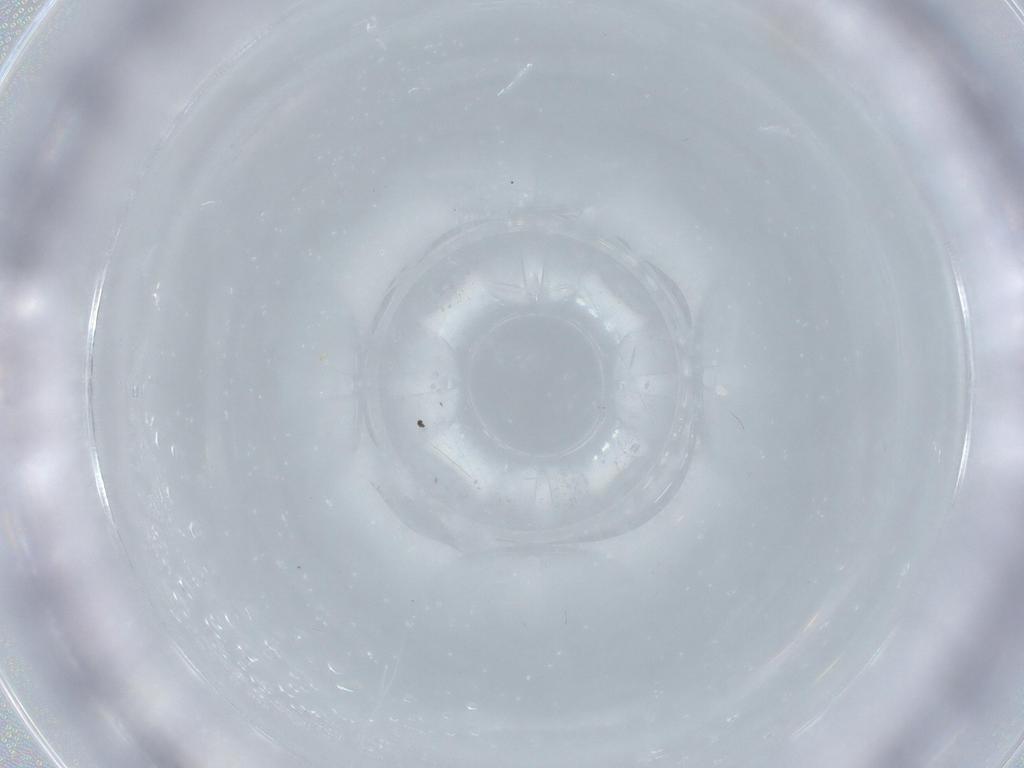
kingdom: Animalia
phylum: Arthropoda
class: Insecta
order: Diptera
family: Cecidomyiidae
